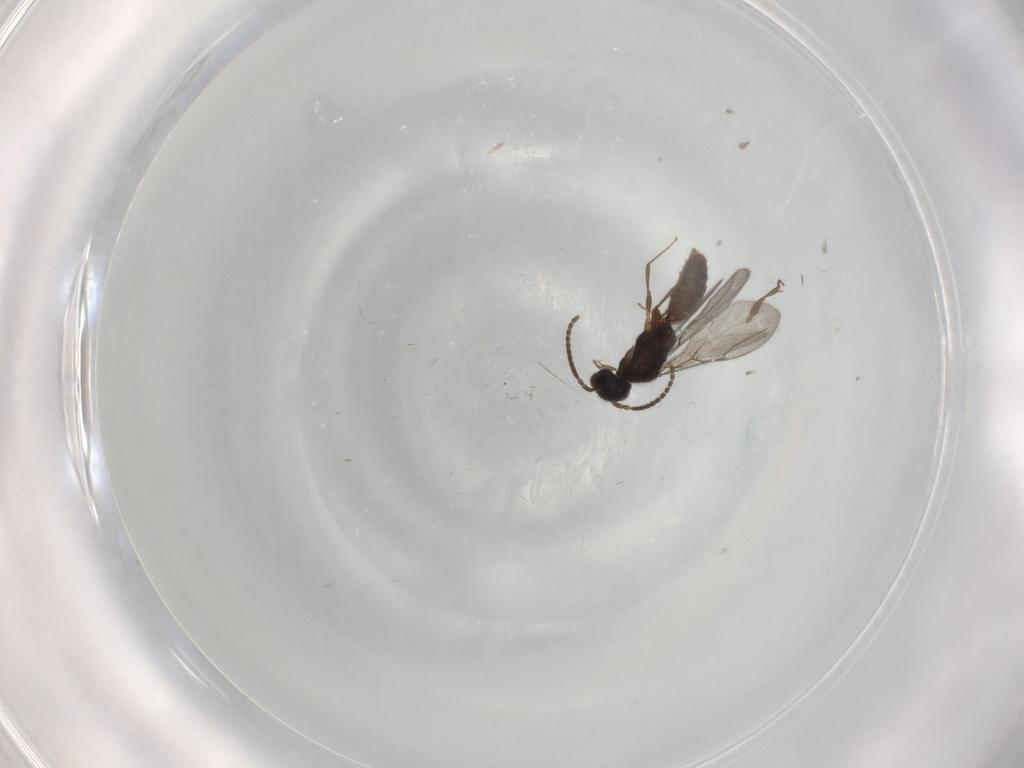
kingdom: Animalia
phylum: Arthropoda
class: Insecta
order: Hymenoptera
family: Bethylidae
